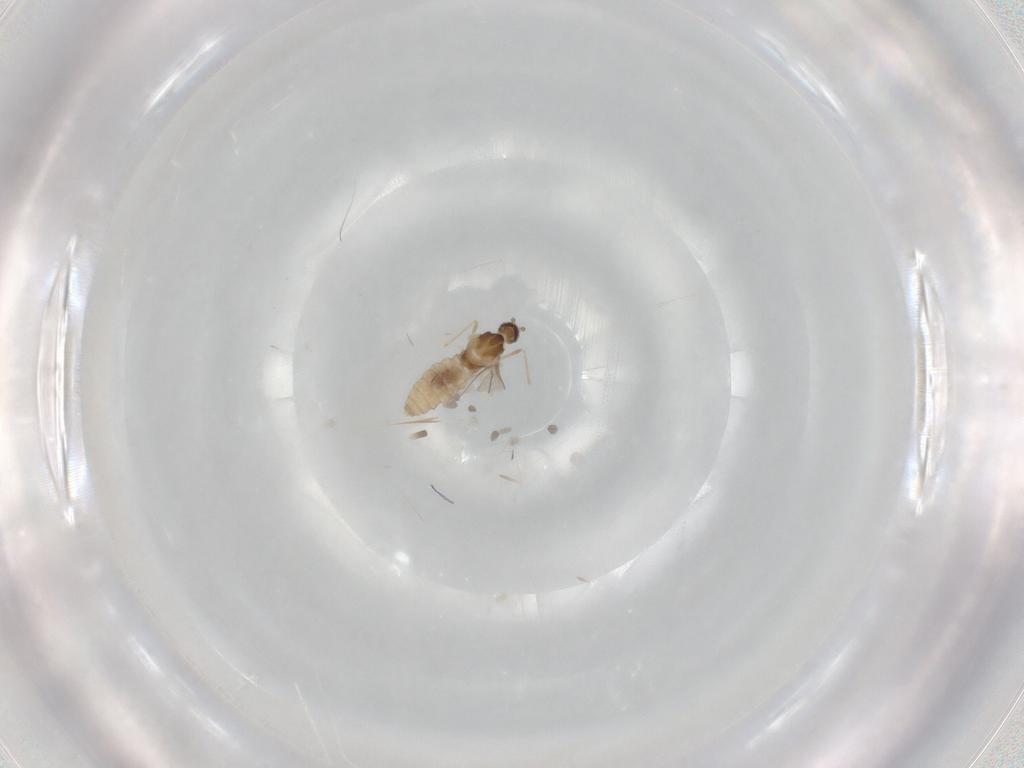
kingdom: Animalia
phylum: Arthropoda
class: Insecta
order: Diptera
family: Cecidomyiidae
